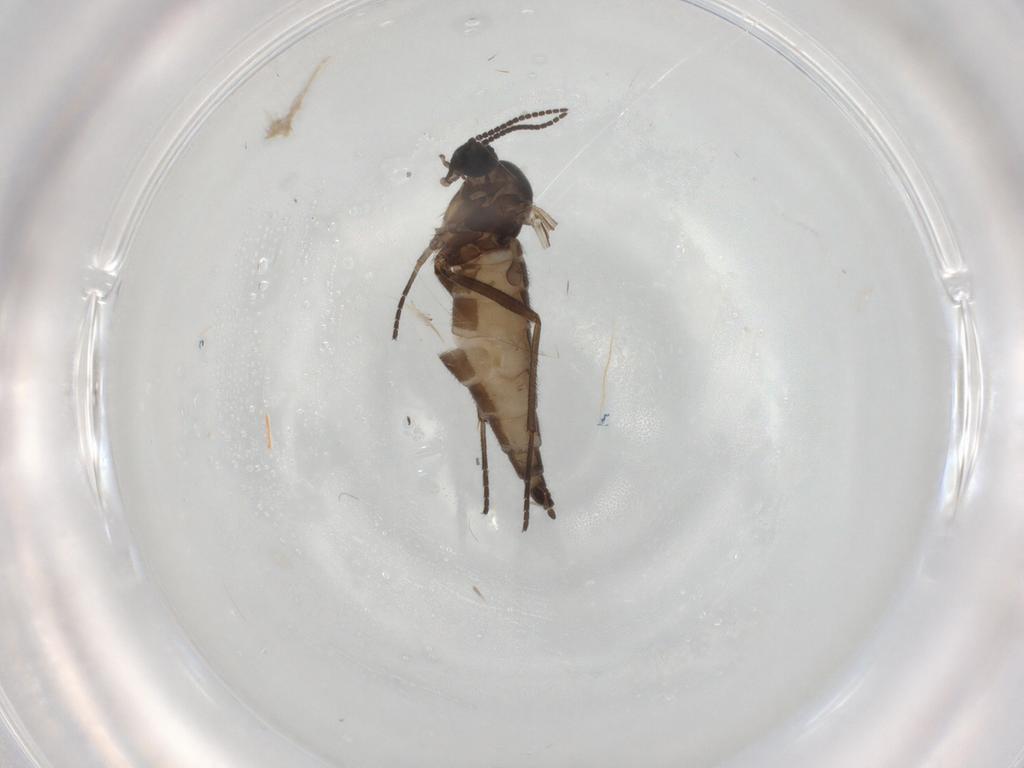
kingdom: Animalia
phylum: Arthropoda
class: Insecta
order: Diptera
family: Sciaridae
